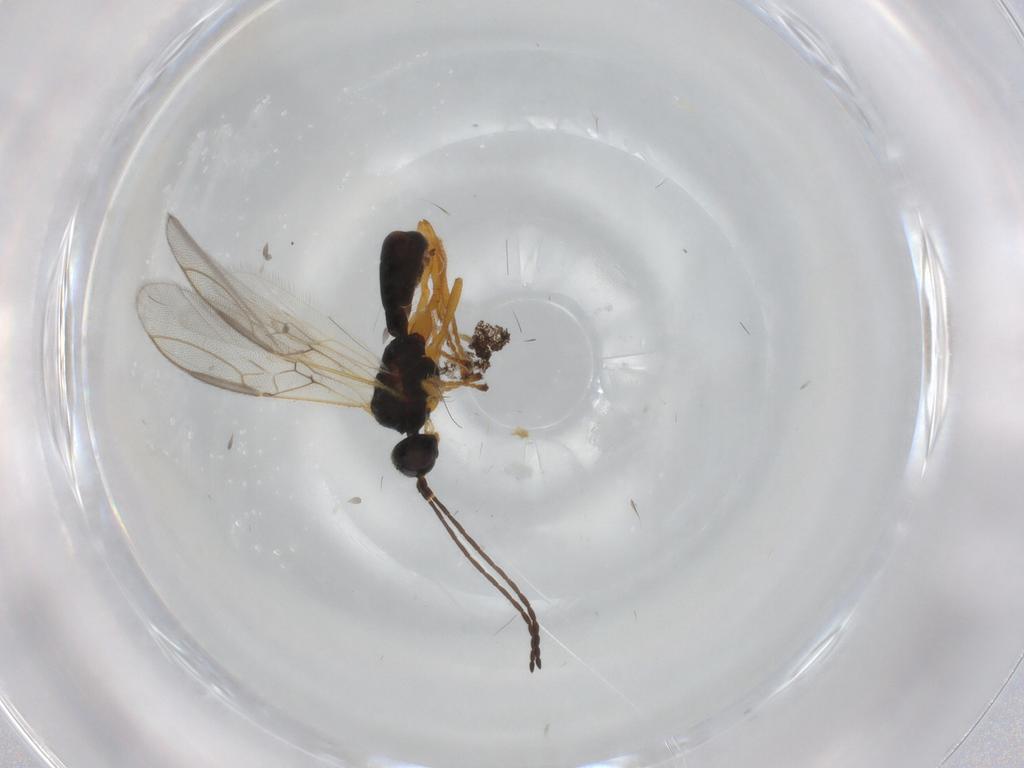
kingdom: Animalia
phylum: Arthropoda
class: Insecta
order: Hymenoptera
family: Braconidae
